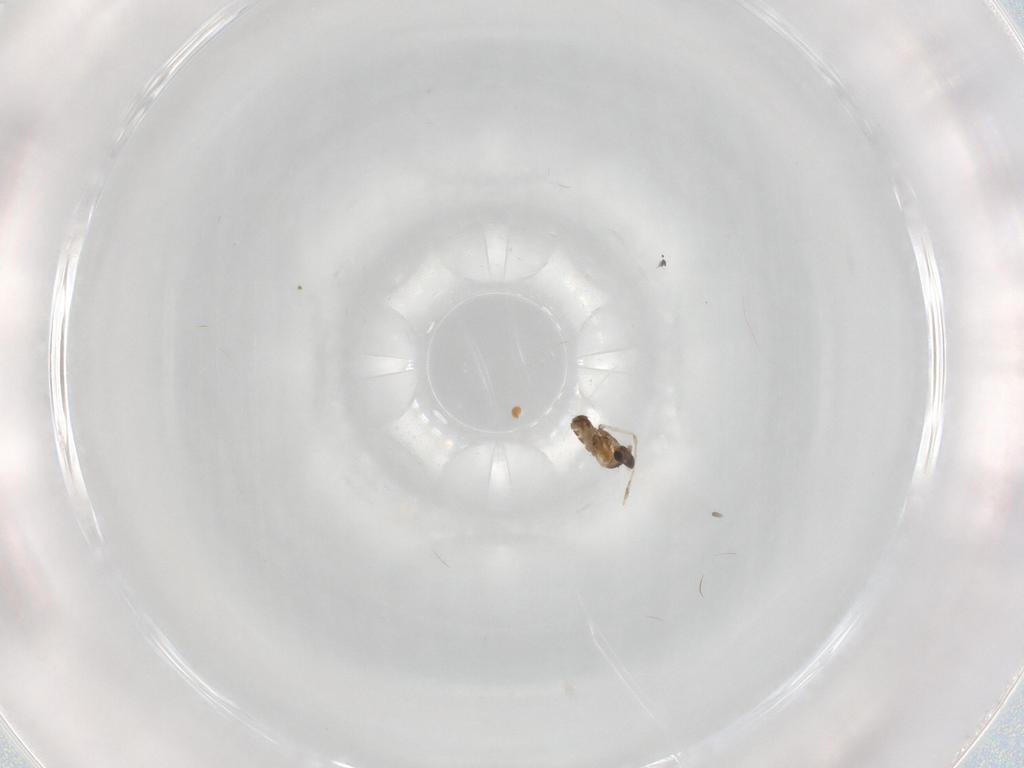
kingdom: Animalia
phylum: Arthropoda
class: Insecta
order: Diptera
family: Cecidomyiidae
